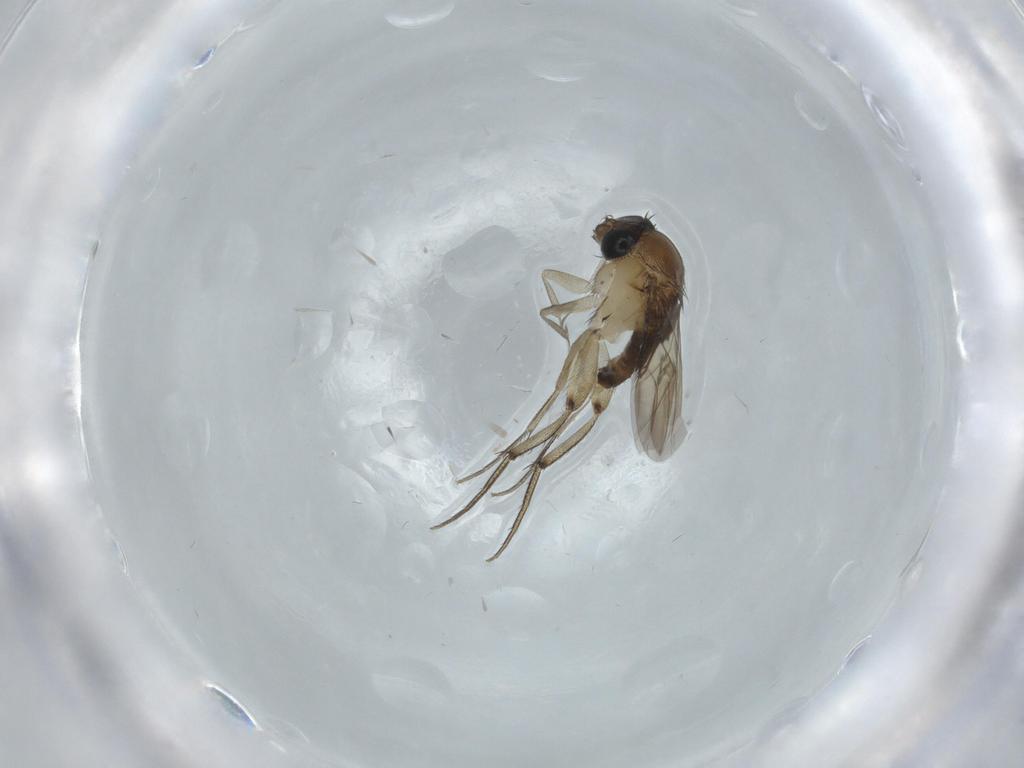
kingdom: Animalia
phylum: Arthropoda
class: Insecta
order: Diptera
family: Phoridae
